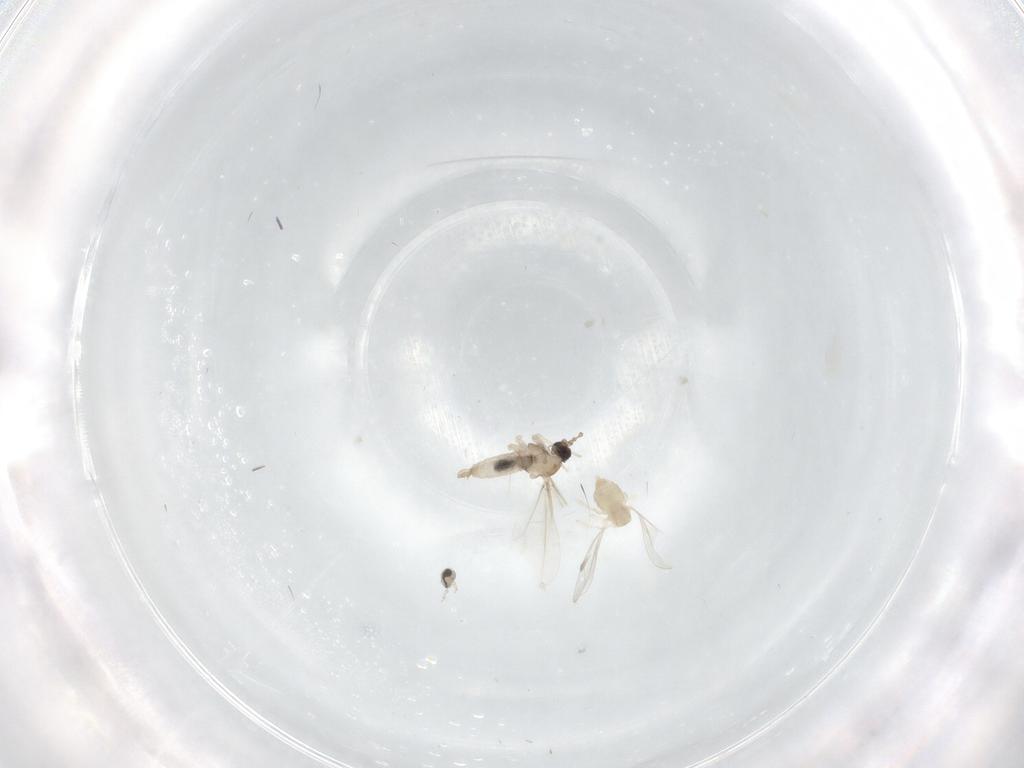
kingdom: Animalia
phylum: Arthropoda
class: Insecta
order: Diptera
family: Cecidomyiidae
